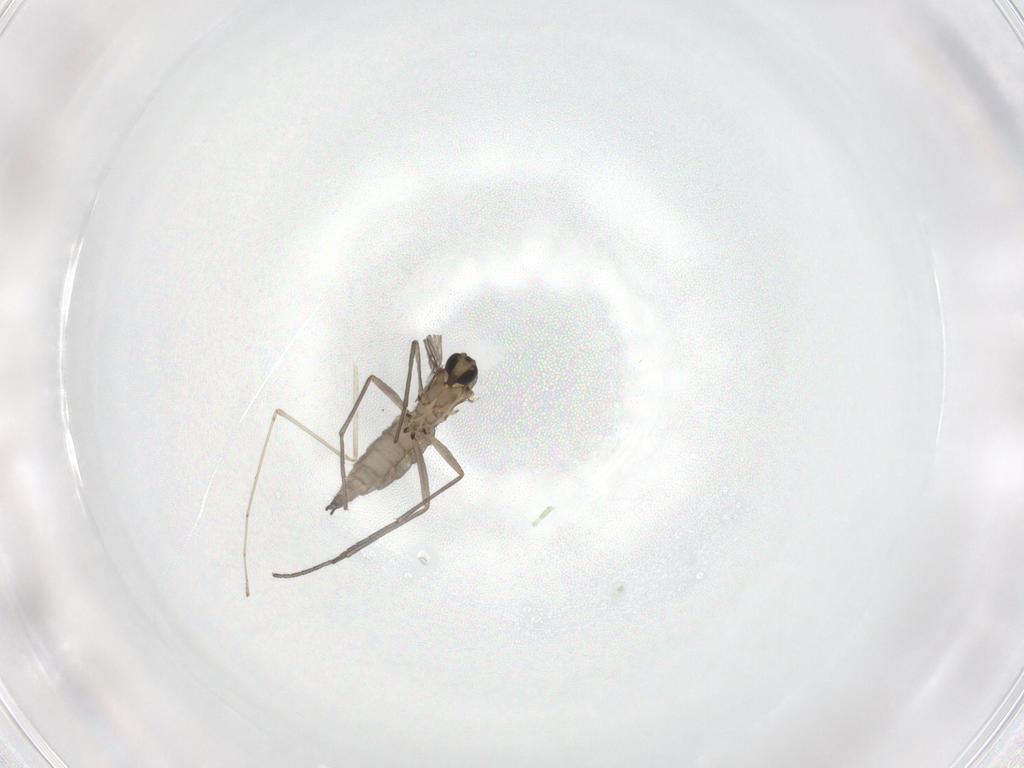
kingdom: Animalia
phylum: Arthropoda
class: Insecta
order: Diptera
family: Sciaridae
